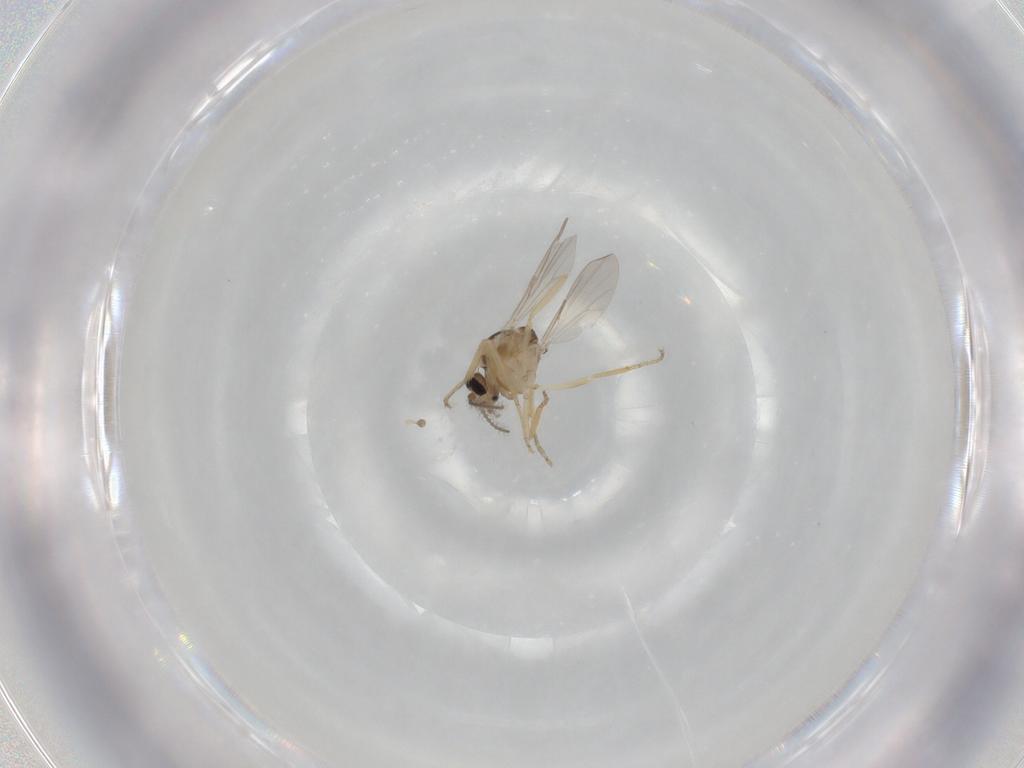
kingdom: Animalia
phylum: Arthropoda
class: Insecta
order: Diptera
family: Ceratopogonidae
